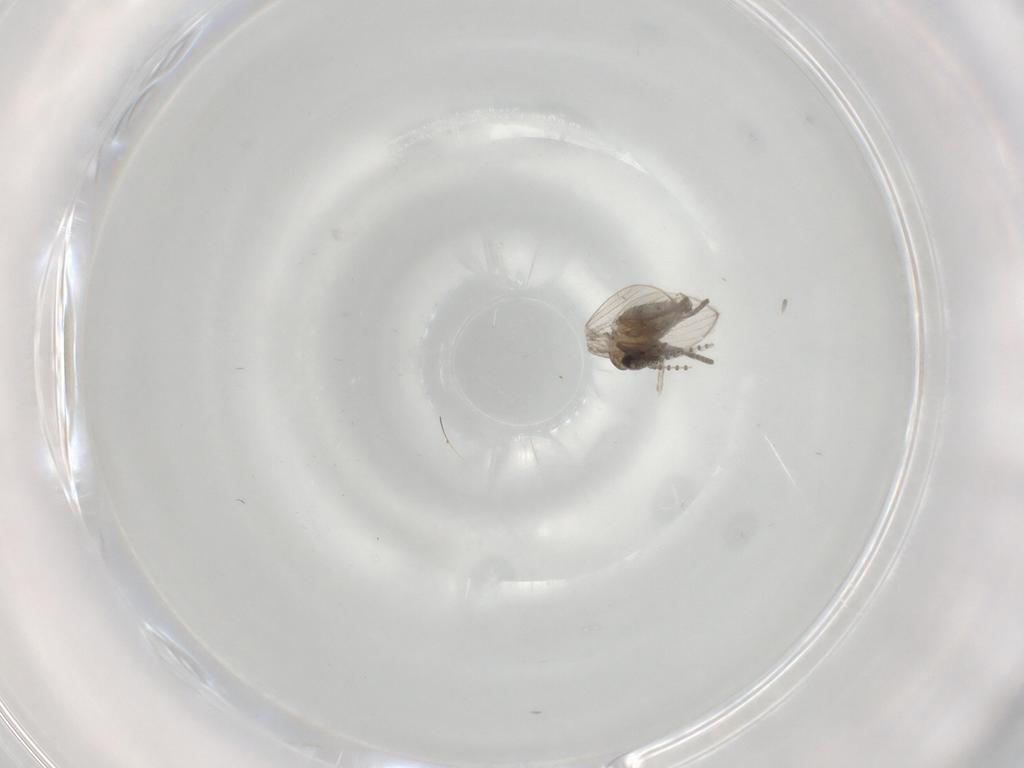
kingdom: Animalia
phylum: Arthropoda
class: Insecta
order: Diptera
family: Psychodidae
